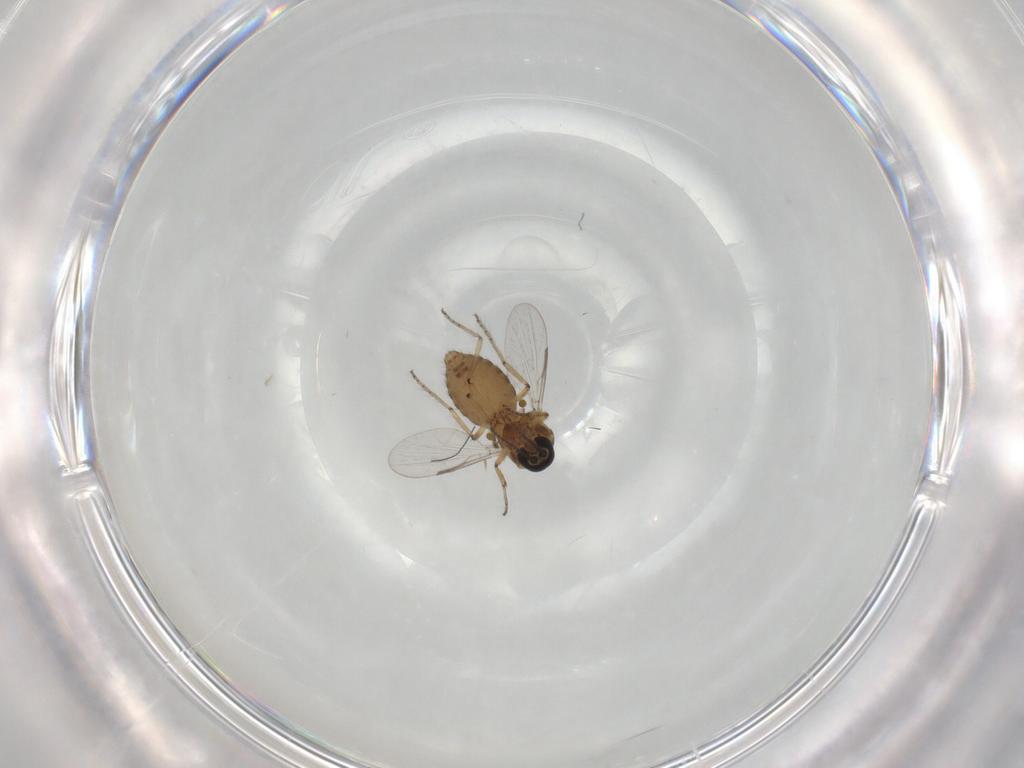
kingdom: Animalia
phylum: Arthropoda
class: Insecta
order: Diptera
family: Ceratopogonidae
